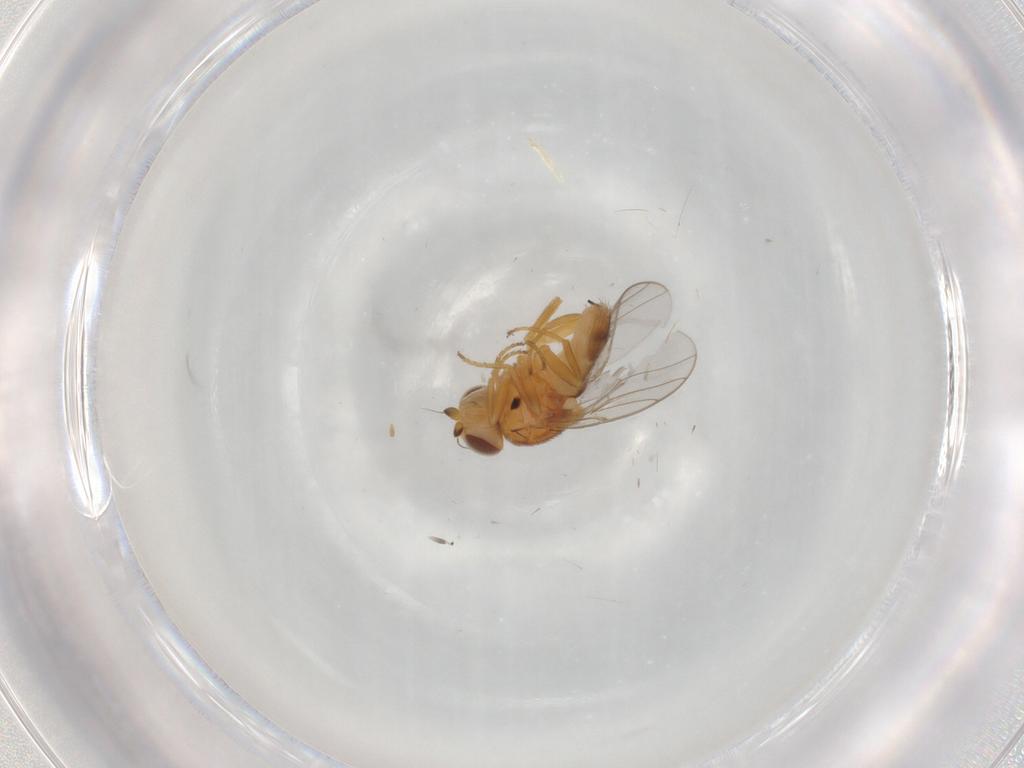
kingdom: Animalia
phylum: Arthropoda
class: Insecta
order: Diptera
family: Chloropidae
